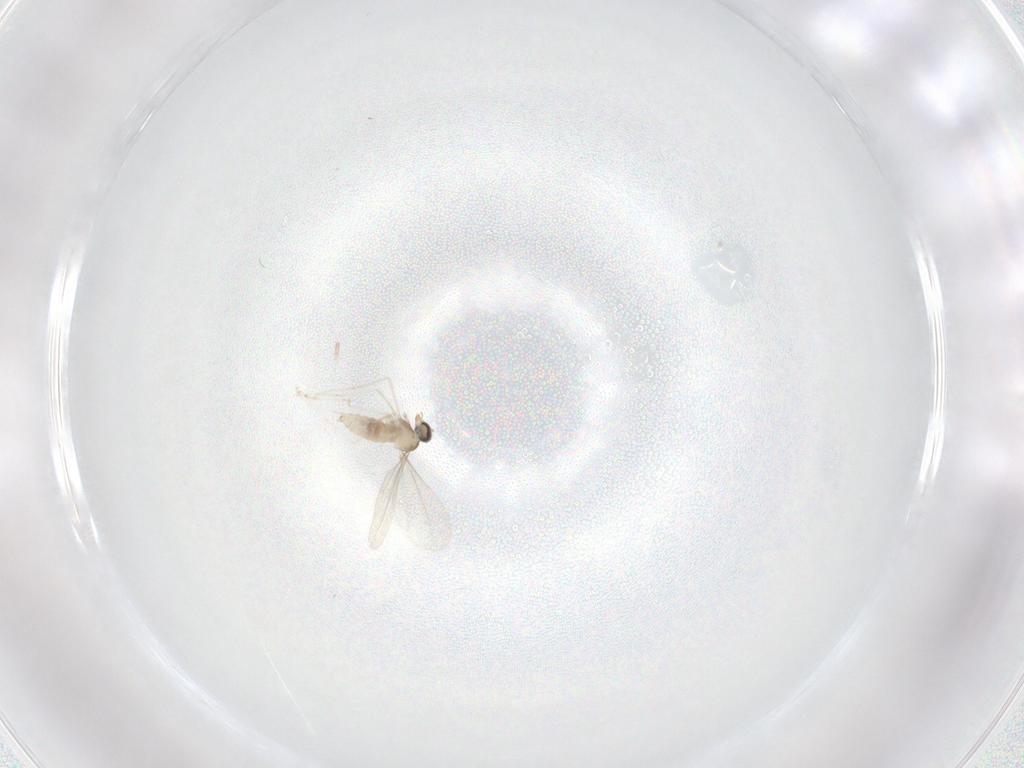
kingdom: Animalia
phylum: Arthropoda
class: Insecta
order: Diptera
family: Cecidomyiidae
